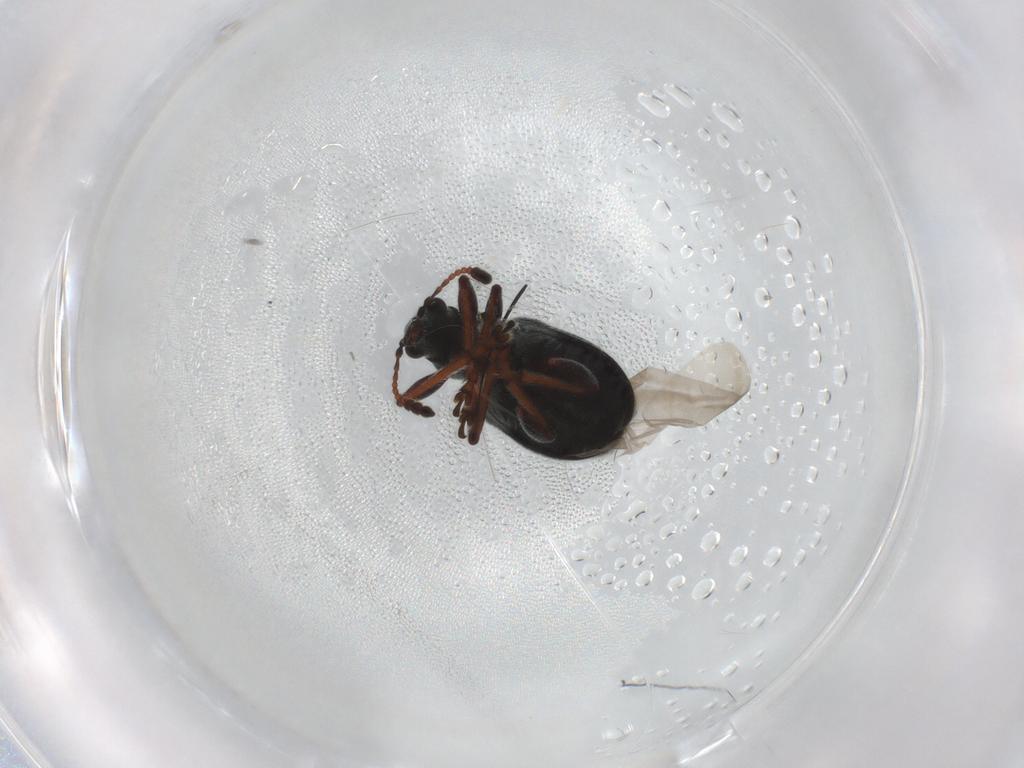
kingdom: Animalia
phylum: Arthropoda
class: Insecta
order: Coleoptera
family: Attelabidae
